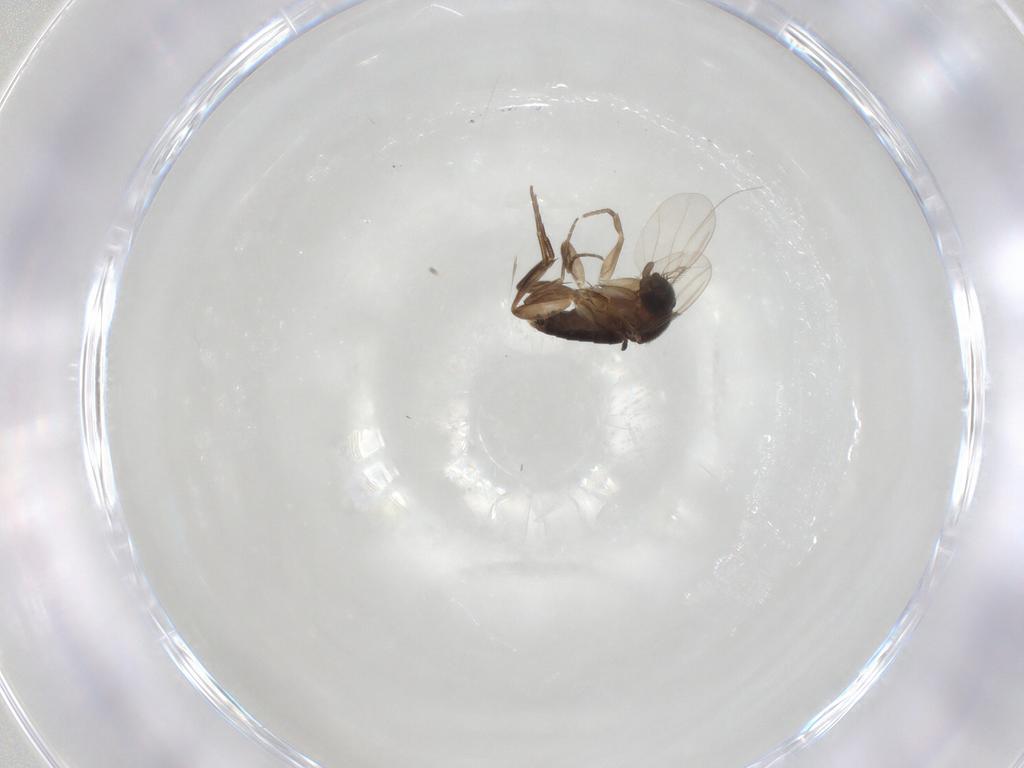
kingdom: Animalia
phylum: Arthropoda
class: Insecta
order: Diptera
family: Phoridae
